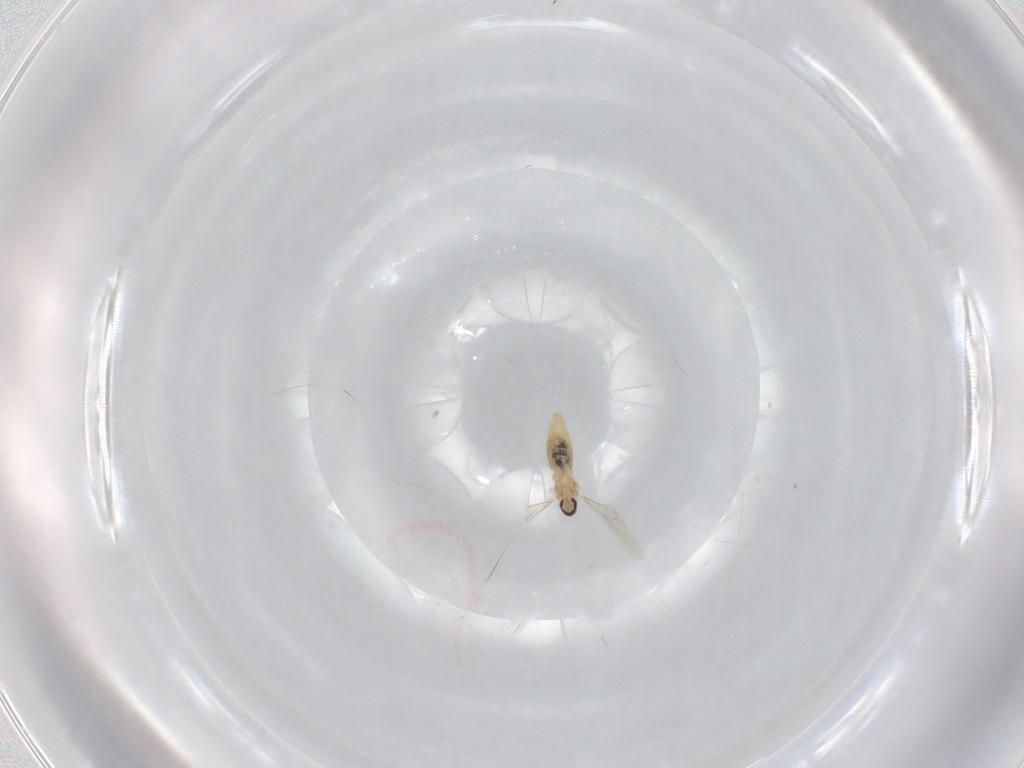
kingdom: Animalia
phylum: Arthropoda
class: Insecta
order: Diptera
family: Cecidomyiidae
